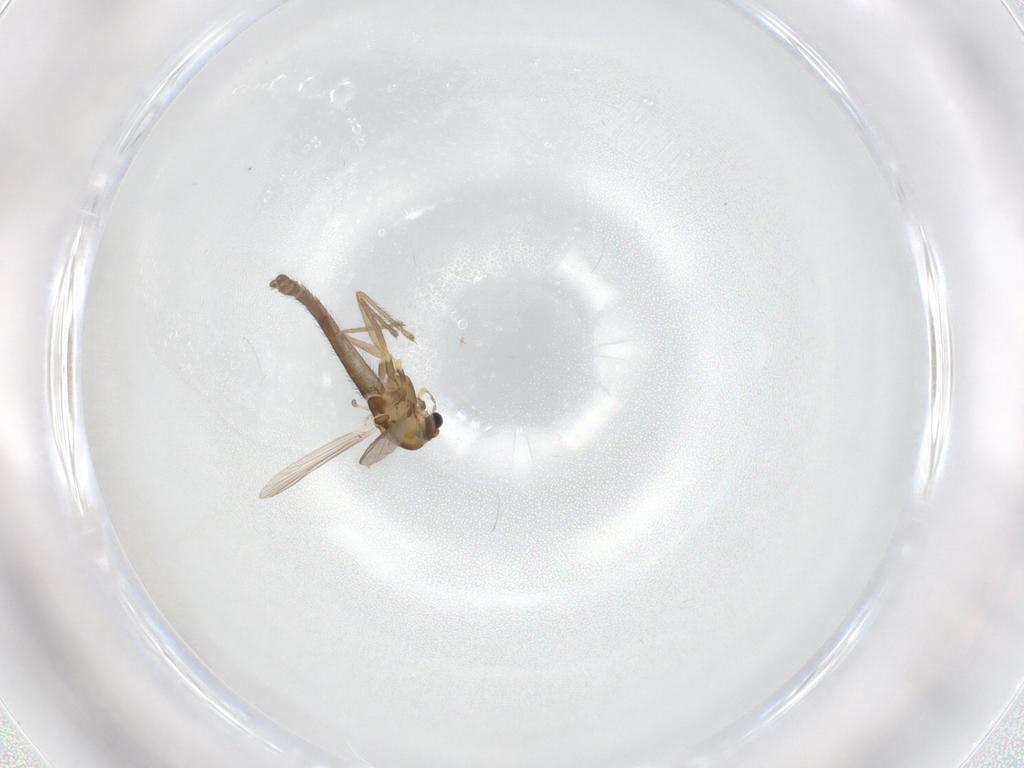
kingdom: Animalia
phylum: Arthropoda
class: Insecta
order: Diptera
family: Chironomidae
